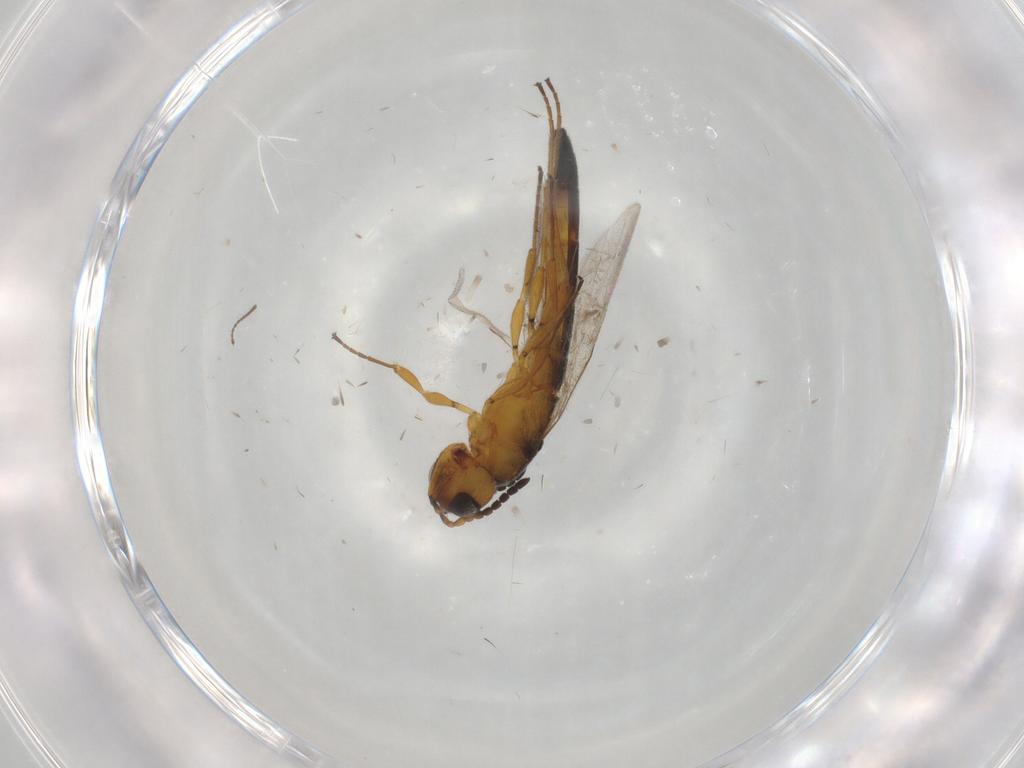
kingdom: Animalia
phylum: Arthropoda
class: Insecta
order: Hymenoptera
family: Scelionidae
